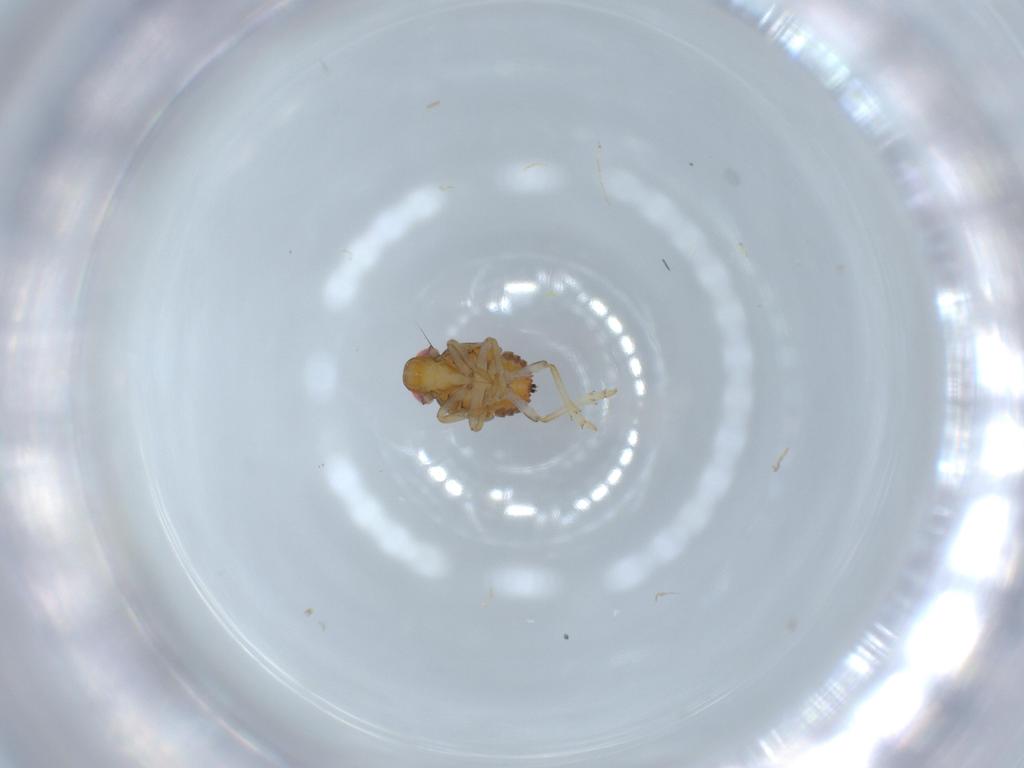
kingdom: Animalia
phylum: Arthropoda
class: Insecta
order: Hemiptera
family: Issidae
